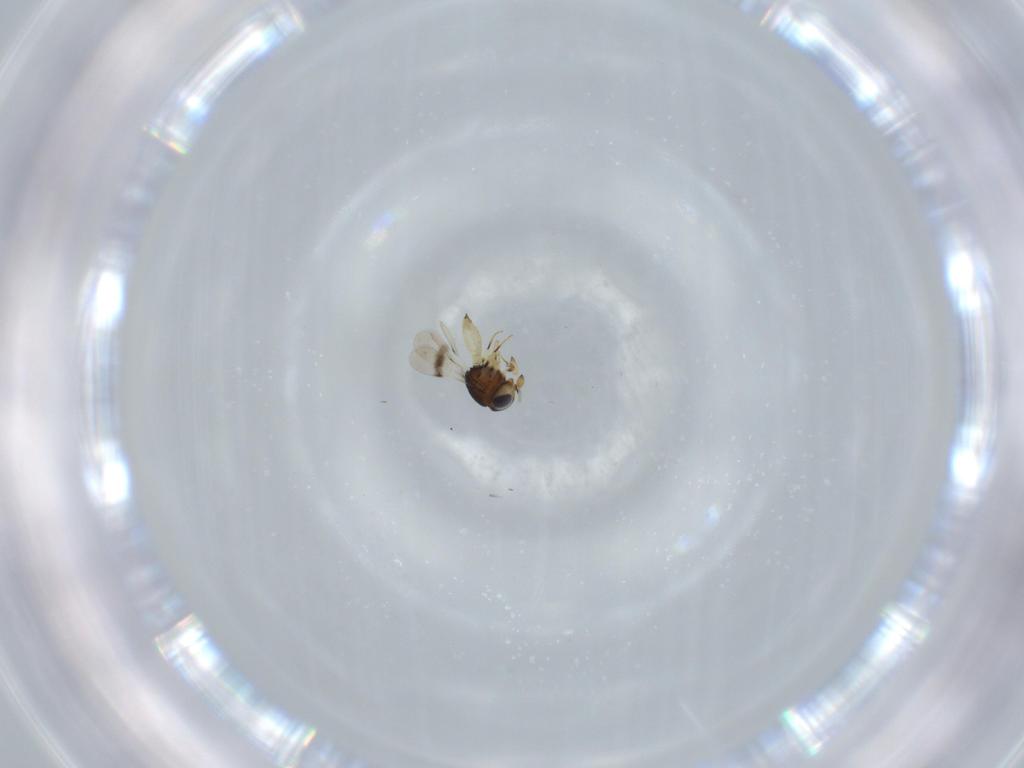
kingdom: Animalia
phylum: Arthropoda
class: Insecta
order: Hymenoptera
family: Scelionidae
